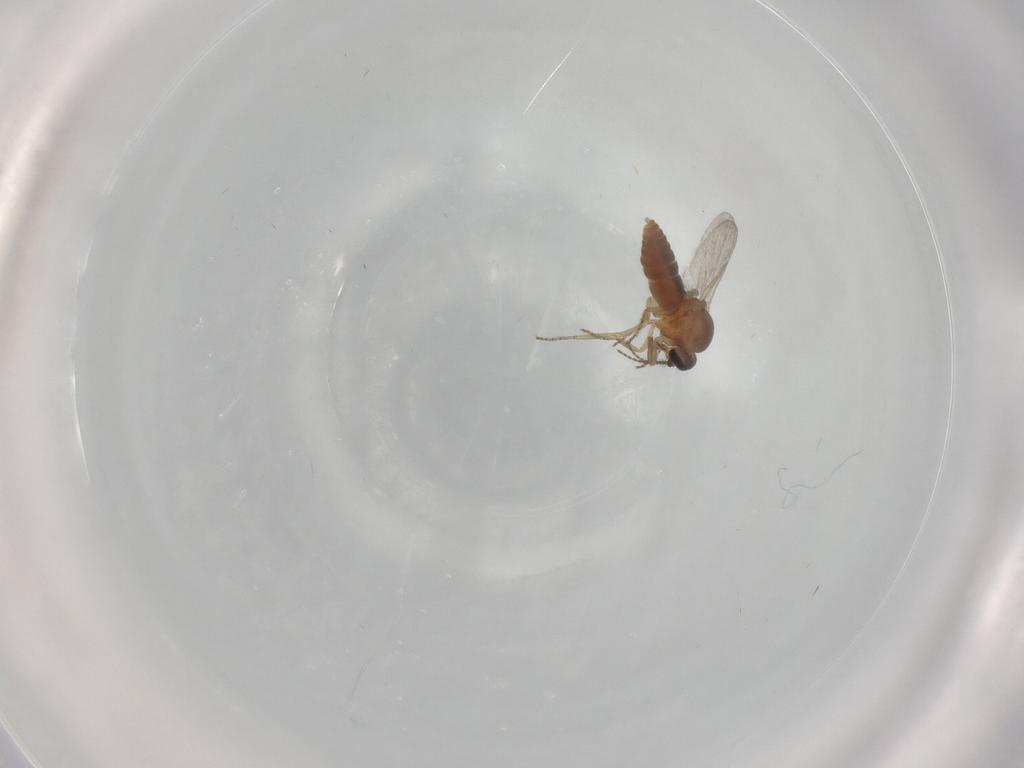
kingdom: Animalia
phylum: Arthropoda
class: Insecta
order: Diptera
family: Ceratopogonidae
